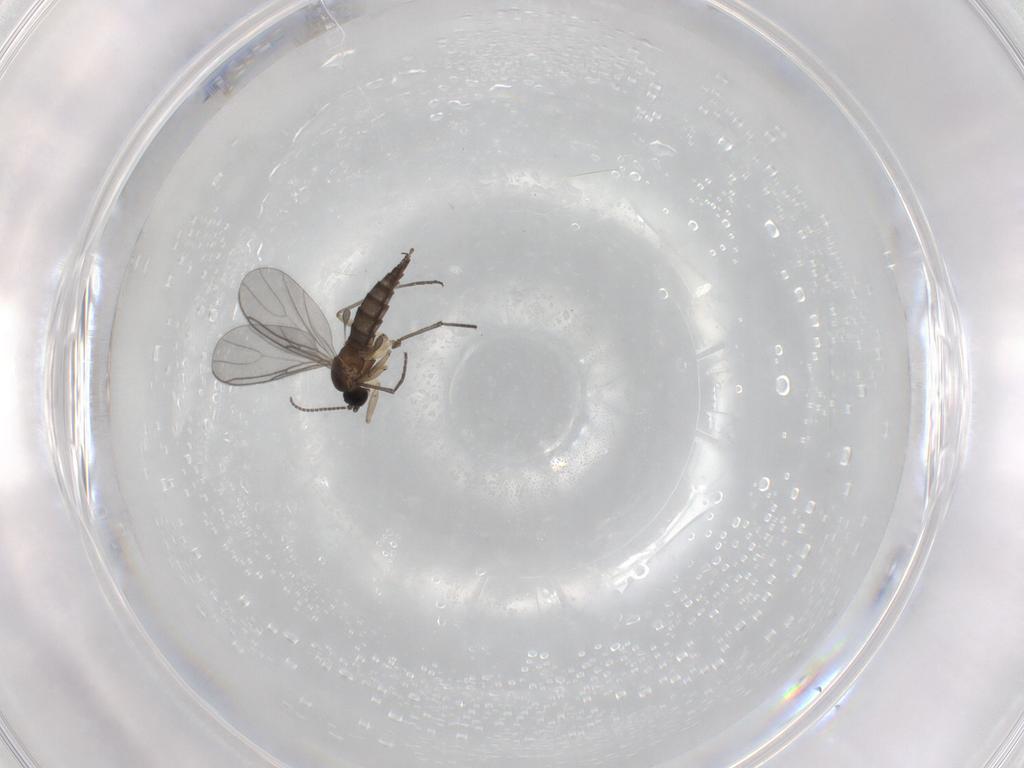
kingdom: Animalia
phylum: Arthropoda
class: Insecta
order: Diptera
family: Sciaridae
